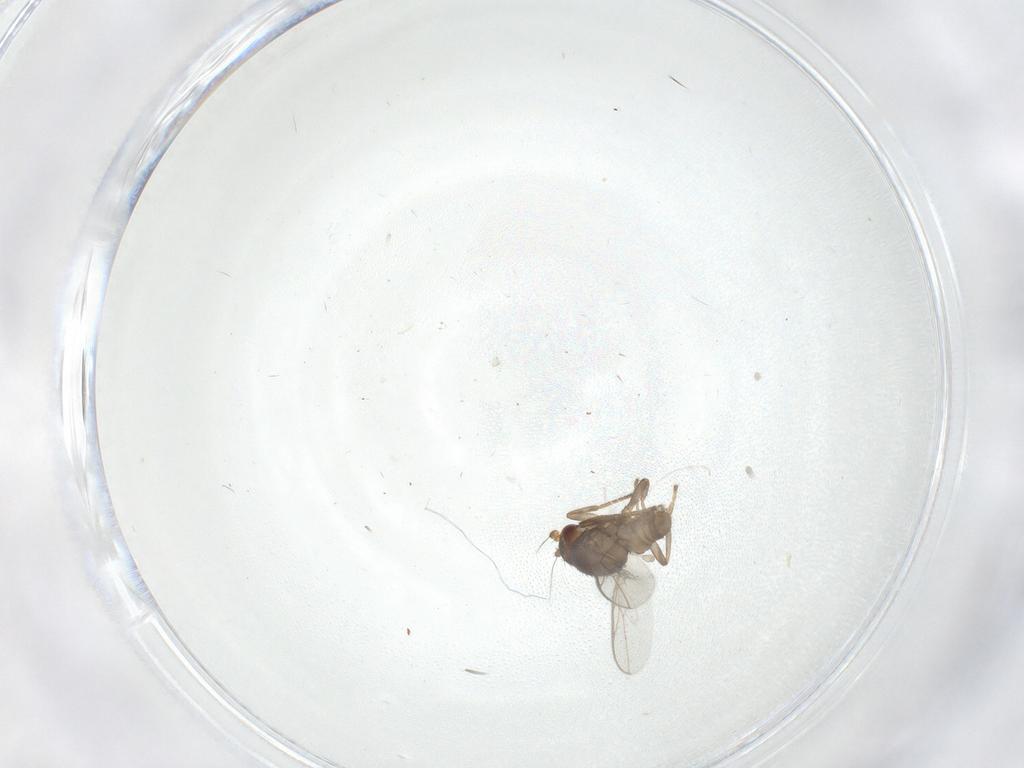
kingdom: Animalia
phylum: Arthropoda
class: Insecta
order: Diptera
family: Sphaeroceridae
